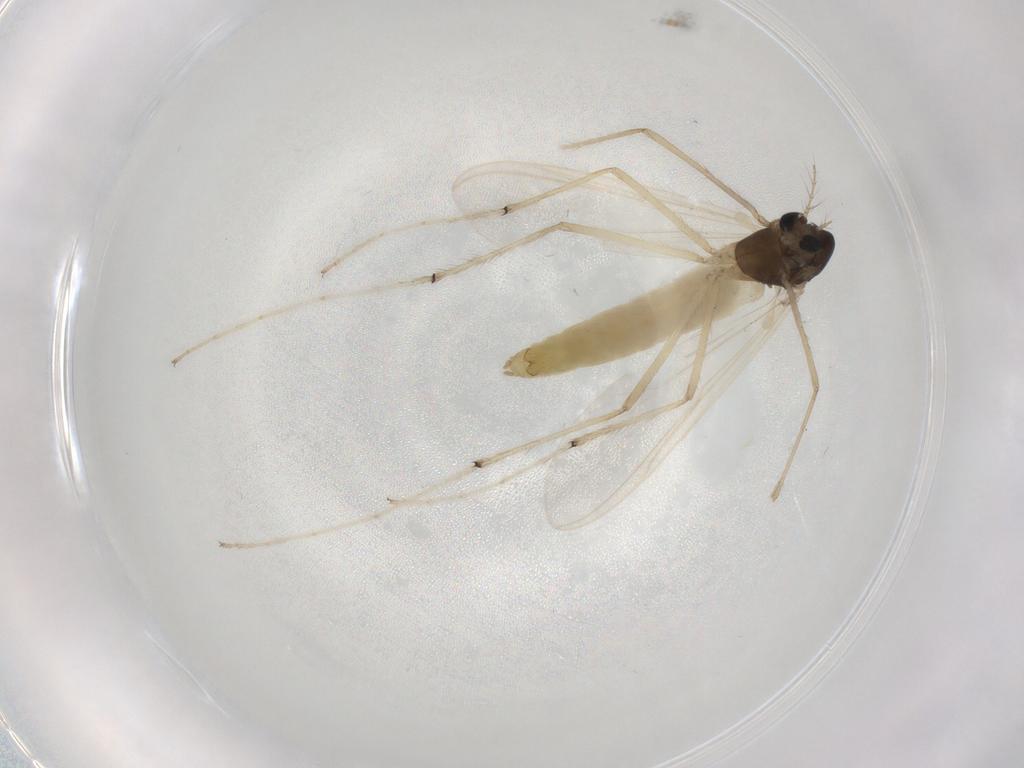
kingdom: Animalia
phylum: Arthropoda
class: Insecta
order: Diptera
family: Chironomidae
